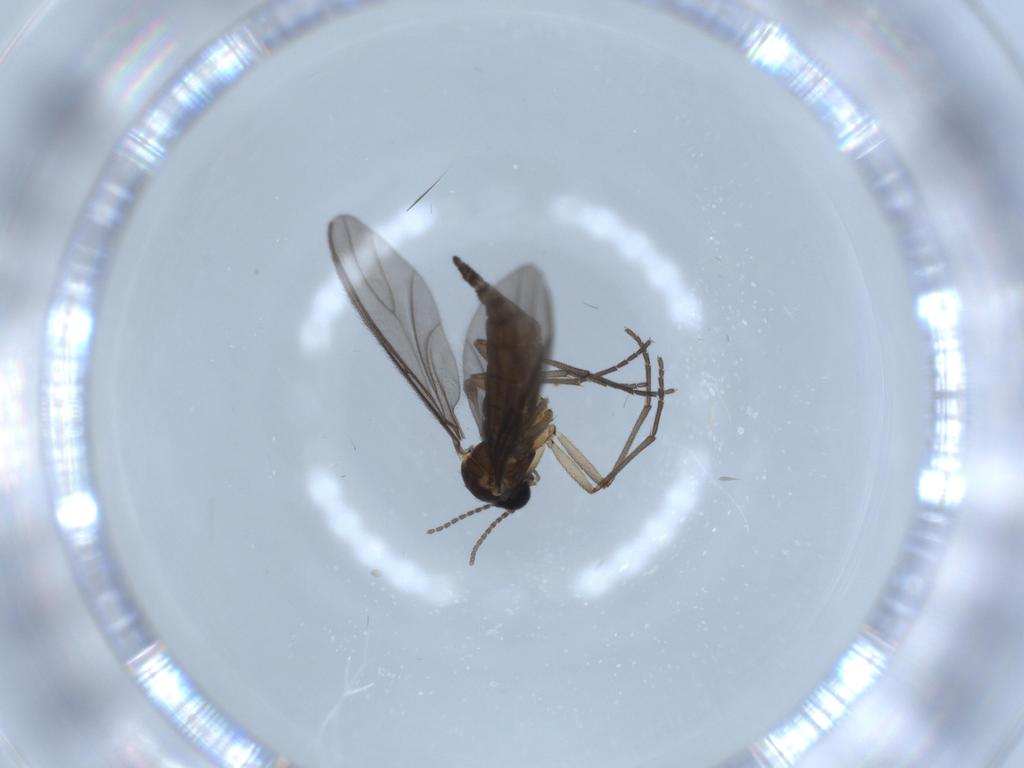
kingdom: Animalia
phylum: Arthropoda
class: Insecta
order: Diptera
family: Sciaridae
